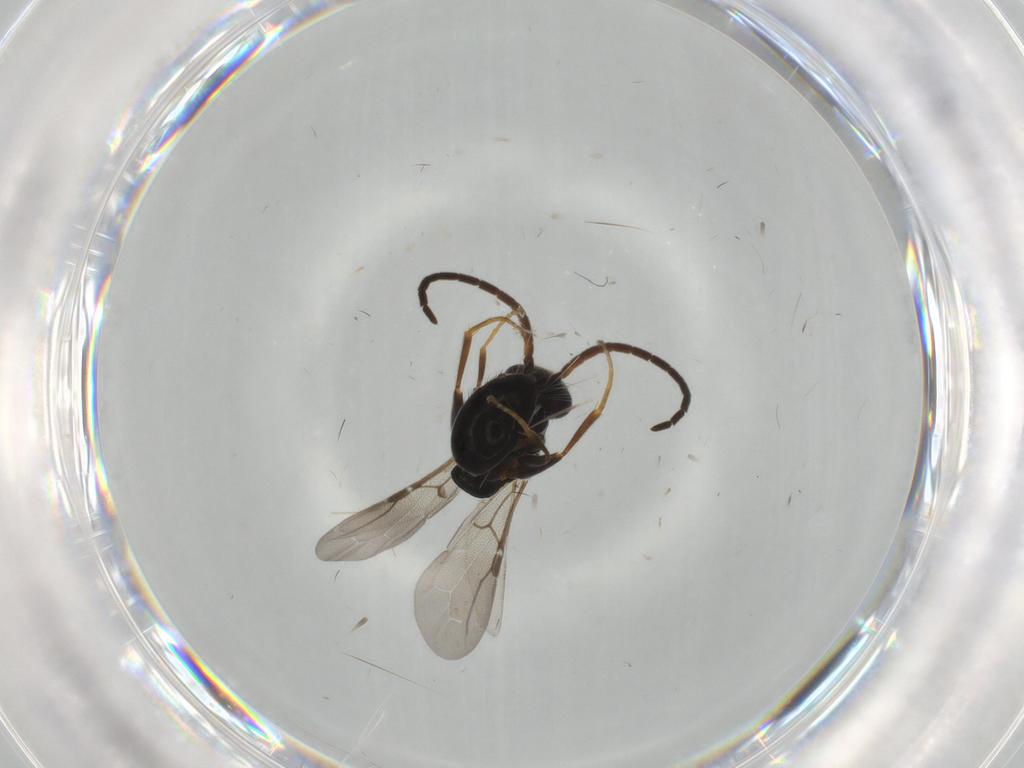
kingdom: Animalia
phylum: Arthropoda
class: Insecta
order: Hymenoptera
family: Bethylidae
